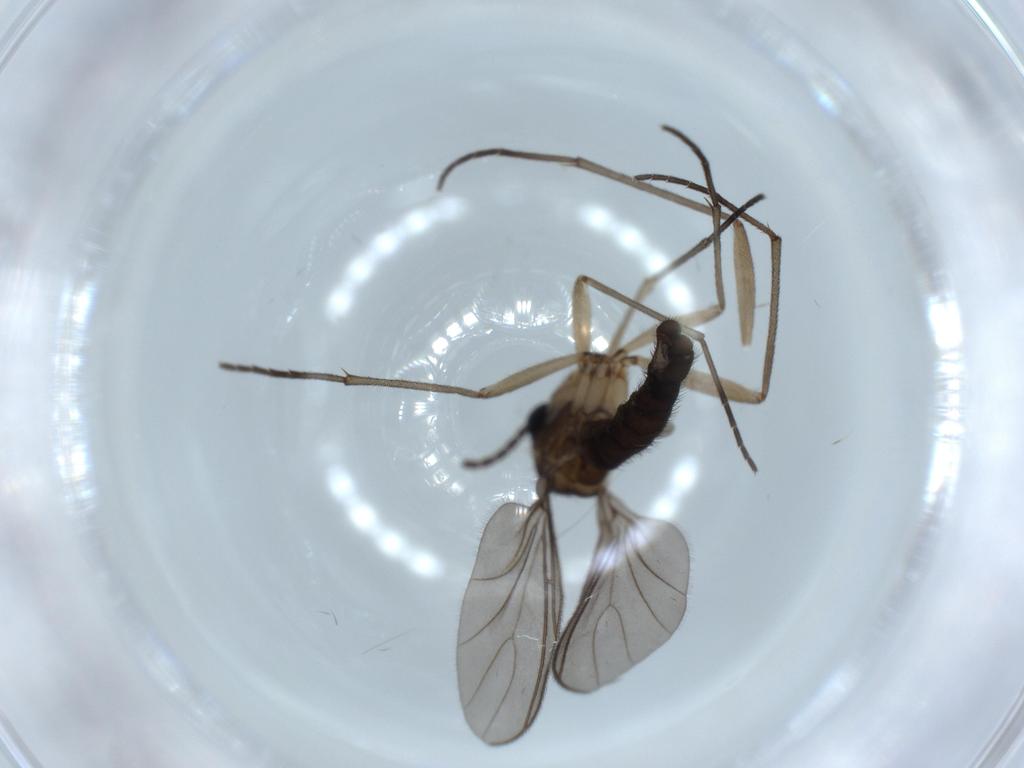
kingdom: Animalia
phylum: Arthropoda
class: Insecta
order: Diptera
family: Sciaridae
